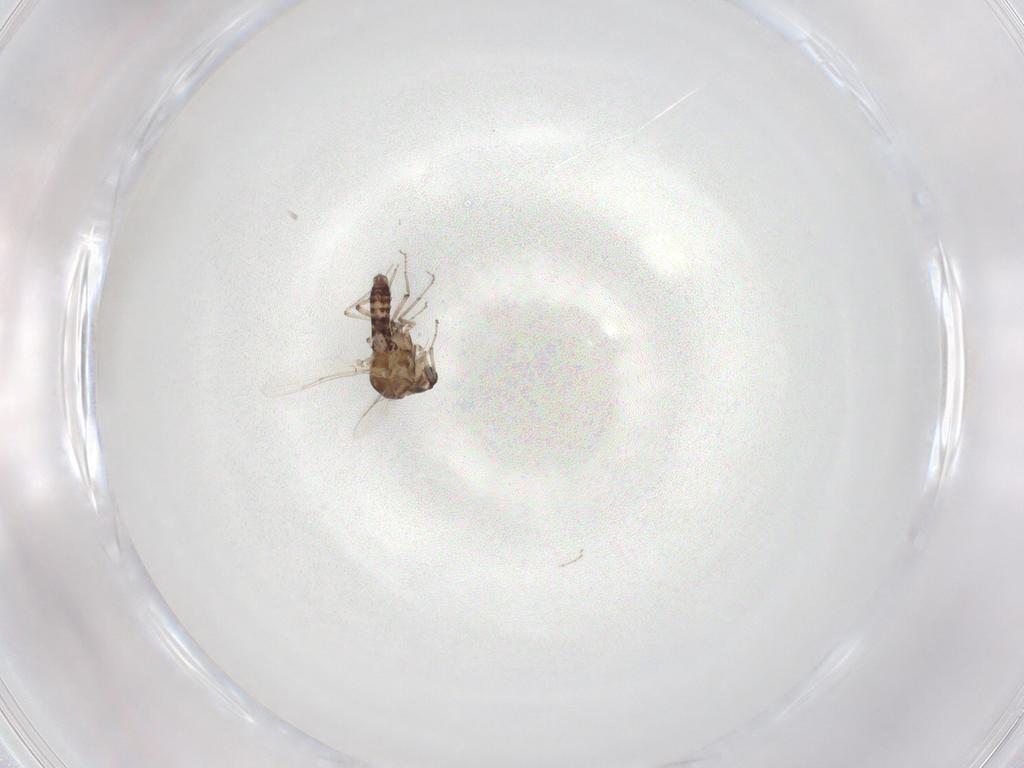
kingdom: Animalia
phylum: Arthropoda
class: Insecta
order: Diptera
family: Ceratopogonidae
